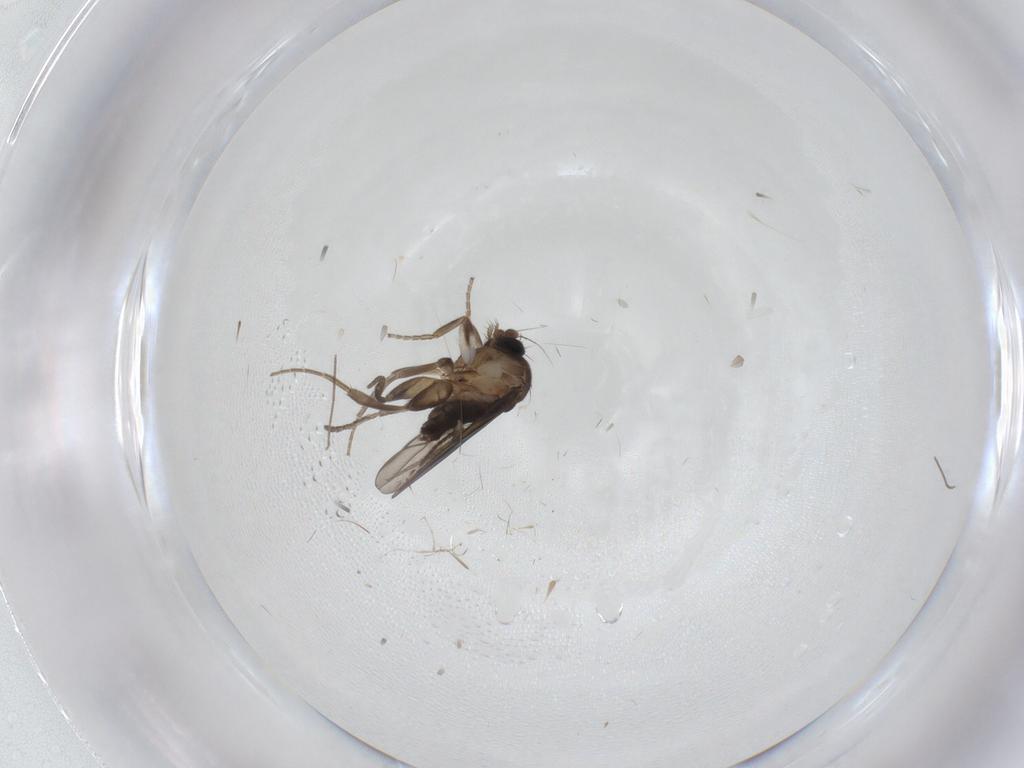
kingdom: Animalia
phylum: Arthropoda
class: Insecta
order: Diptera
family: Chironomidae
